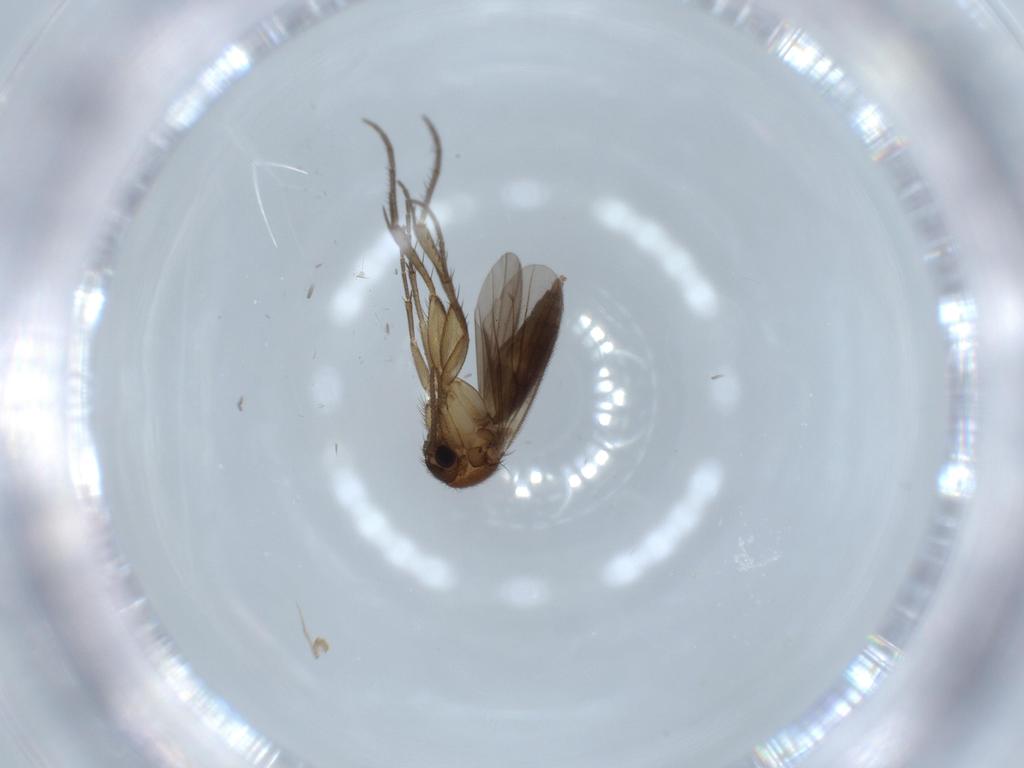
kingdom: Animalia
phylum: Arthropoda
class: Insecta
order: Diptera
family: Mycetophilidae
